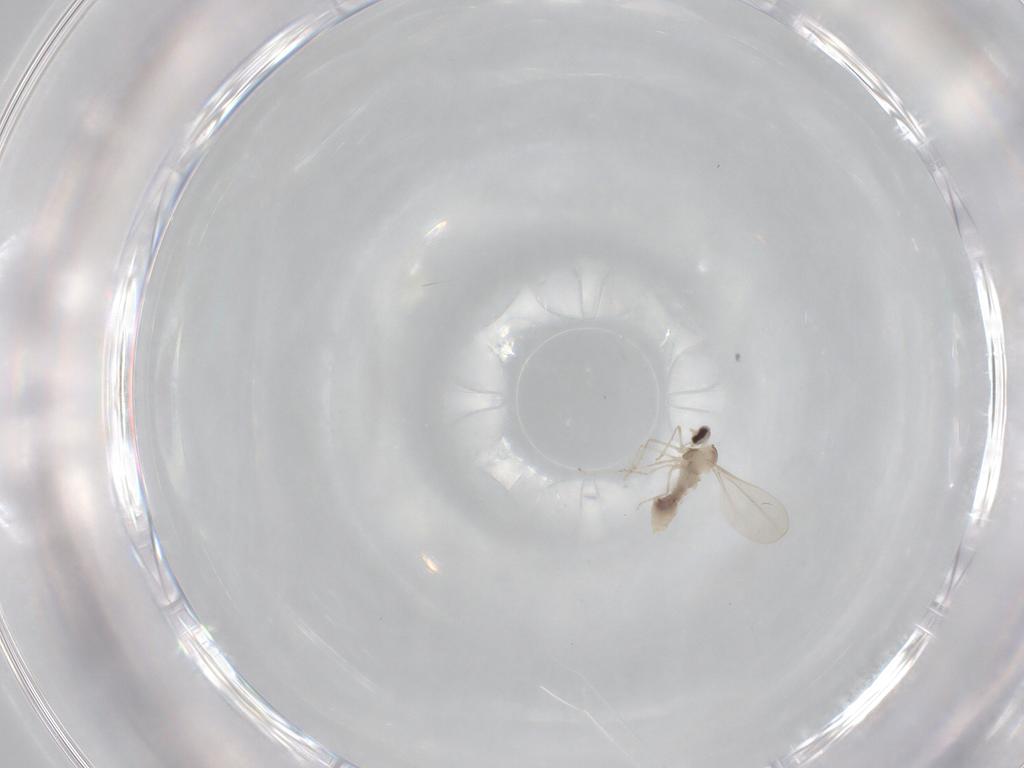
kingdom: Animalia
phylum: Arthropoda
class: Insecta
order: Diptera
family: Cecidomyiidae
